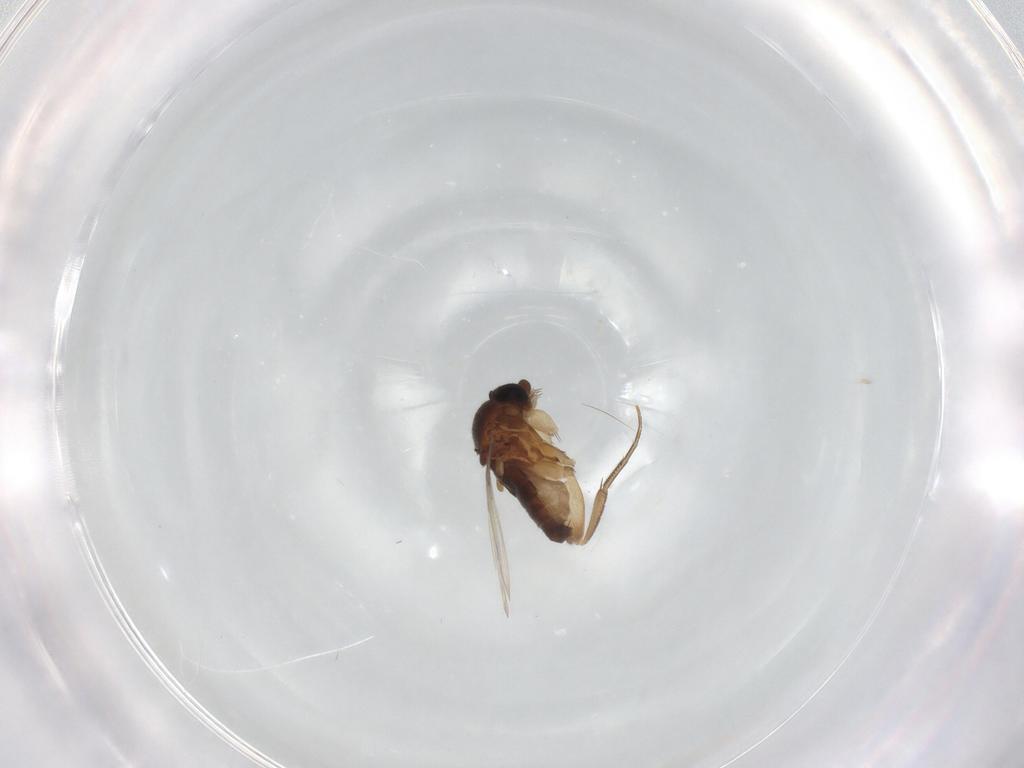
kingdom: Animalia
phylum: Arthropoda
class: Insecta
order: Diptera
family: Phoridae
